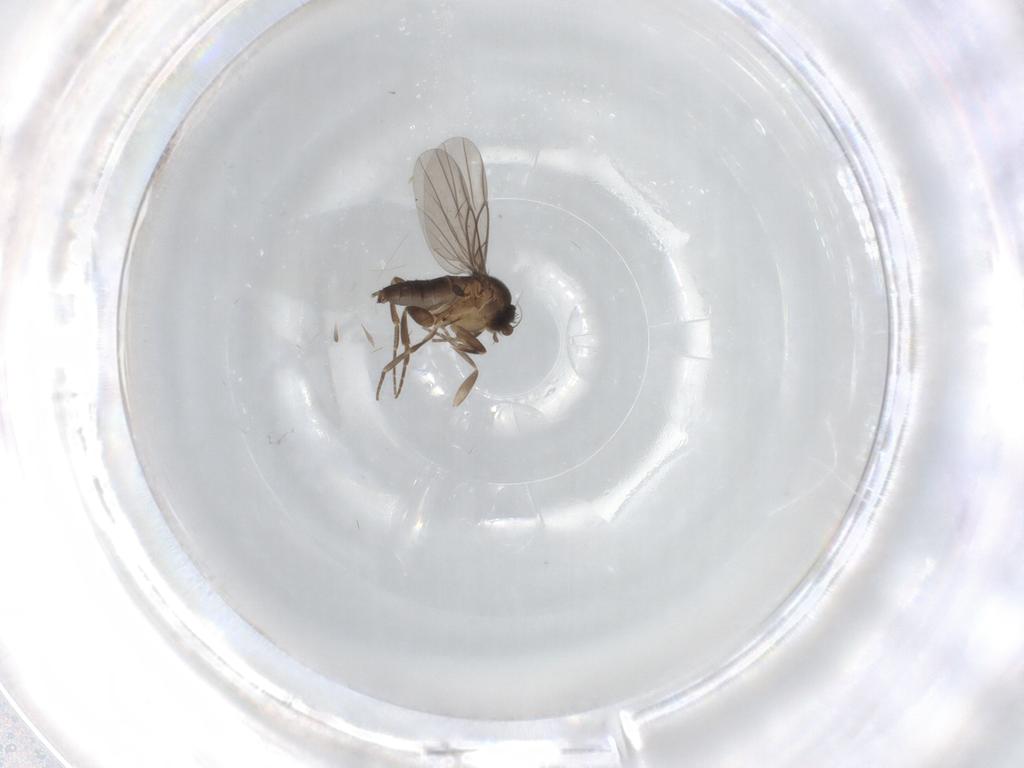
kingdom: Animalia
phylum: Arthropoda
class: Insecta
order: Diptera
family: Phoridae
